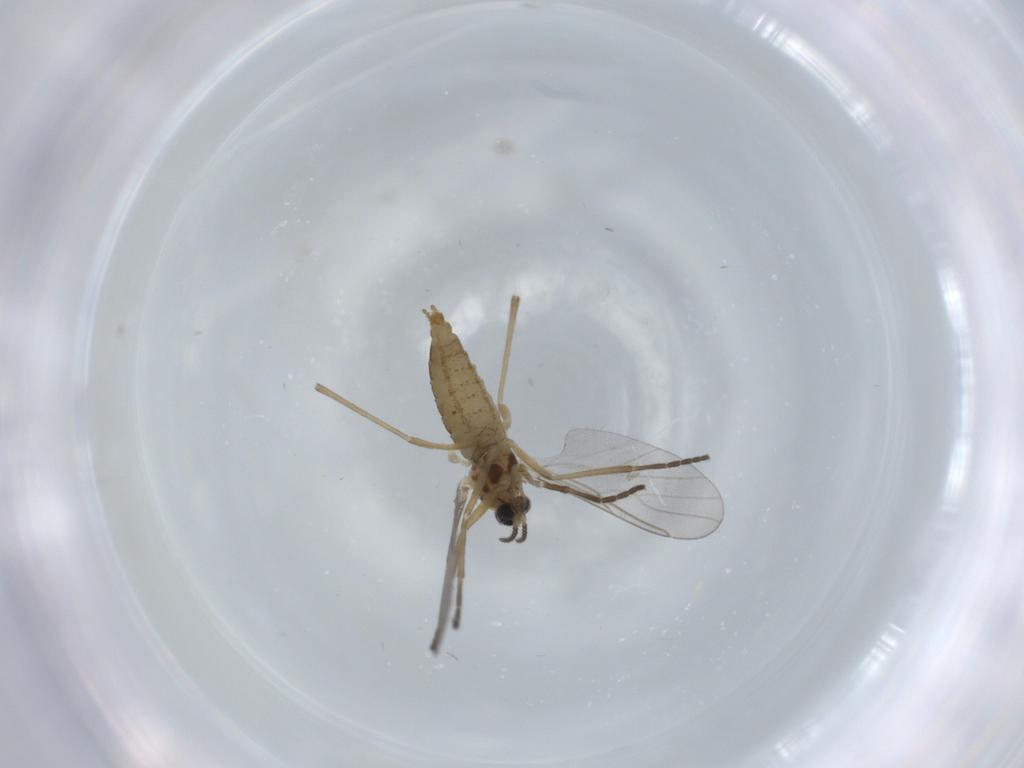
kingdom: Animalia
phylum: Arthropoda
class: Insecta
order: Diptera
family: Cecidomyiidae
